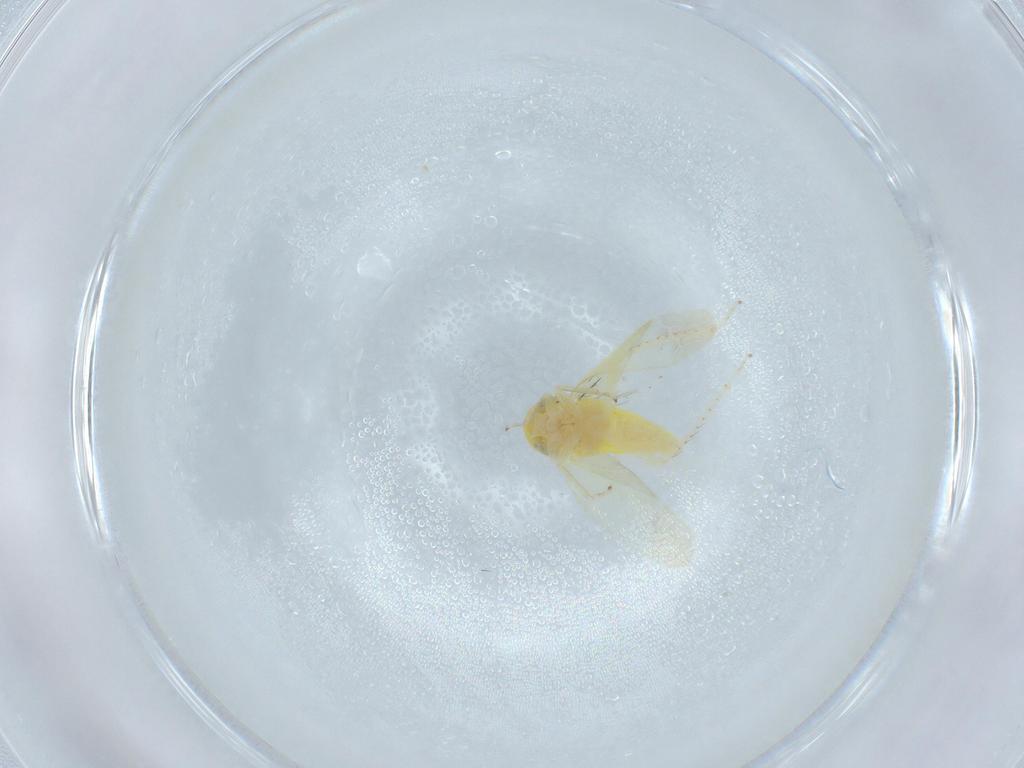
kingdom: Animalia
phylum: Arthropoda
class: Insecta
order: Hemiptera
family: Cicadellidae
